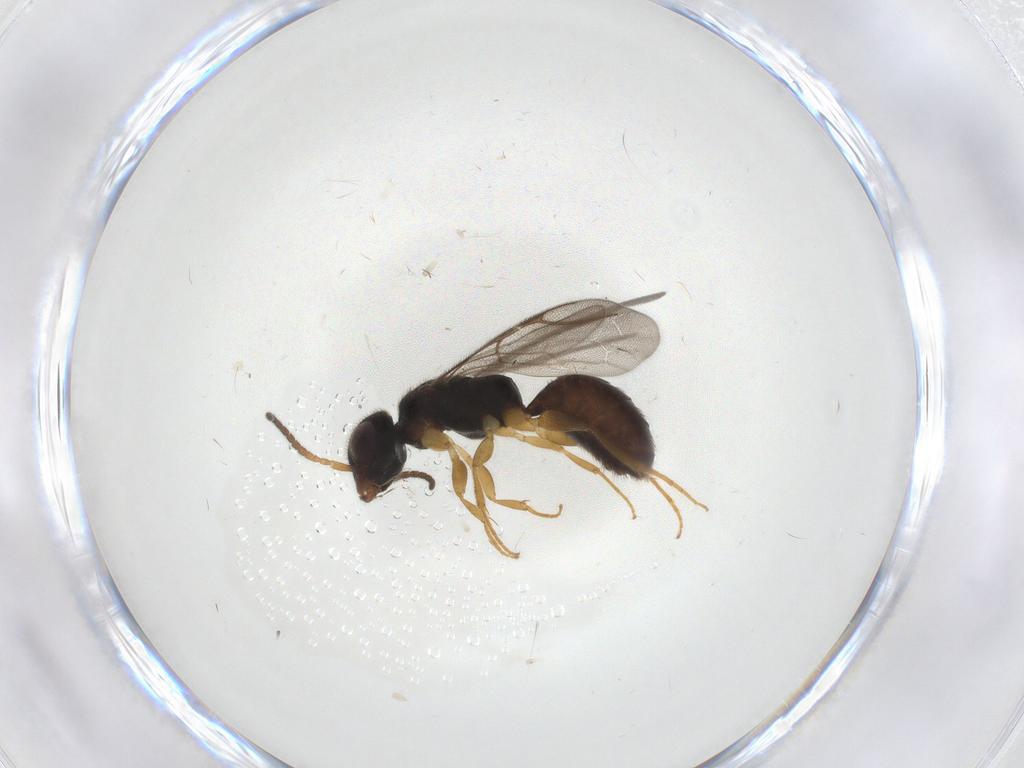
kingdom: Animalia
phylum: Arthropoda
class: Insecta
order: Hymenoptera
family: Bethylidae
